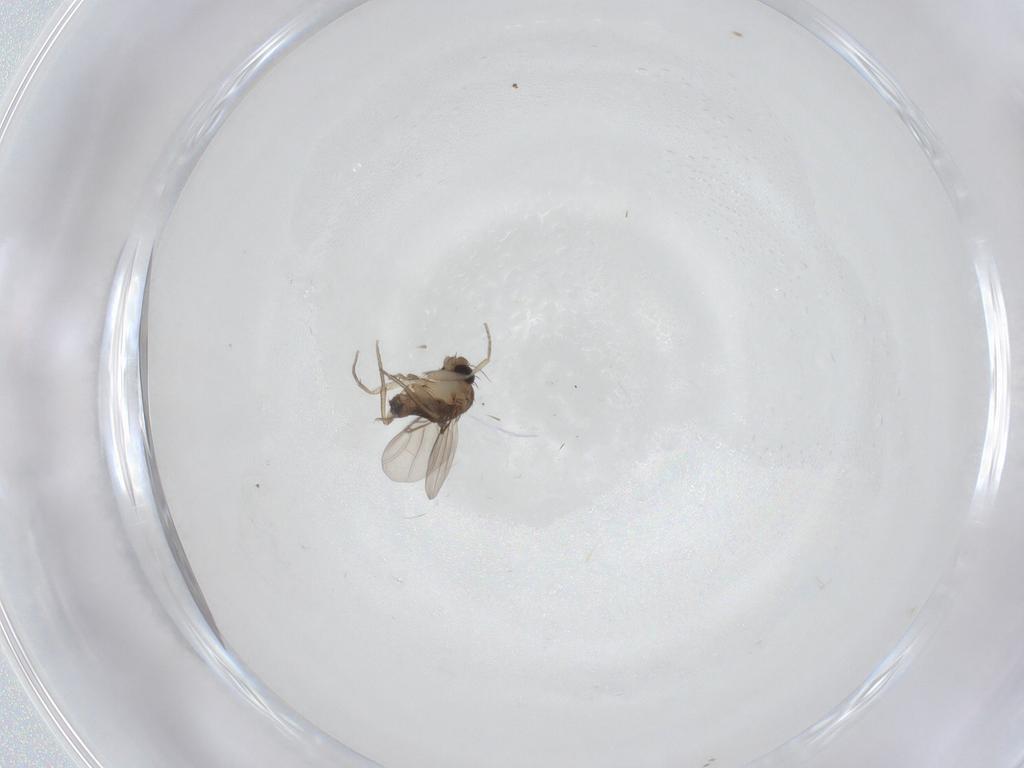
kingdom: Animalia
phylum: Arthropoda
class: Insecta
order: Diptera
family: Phoridae
